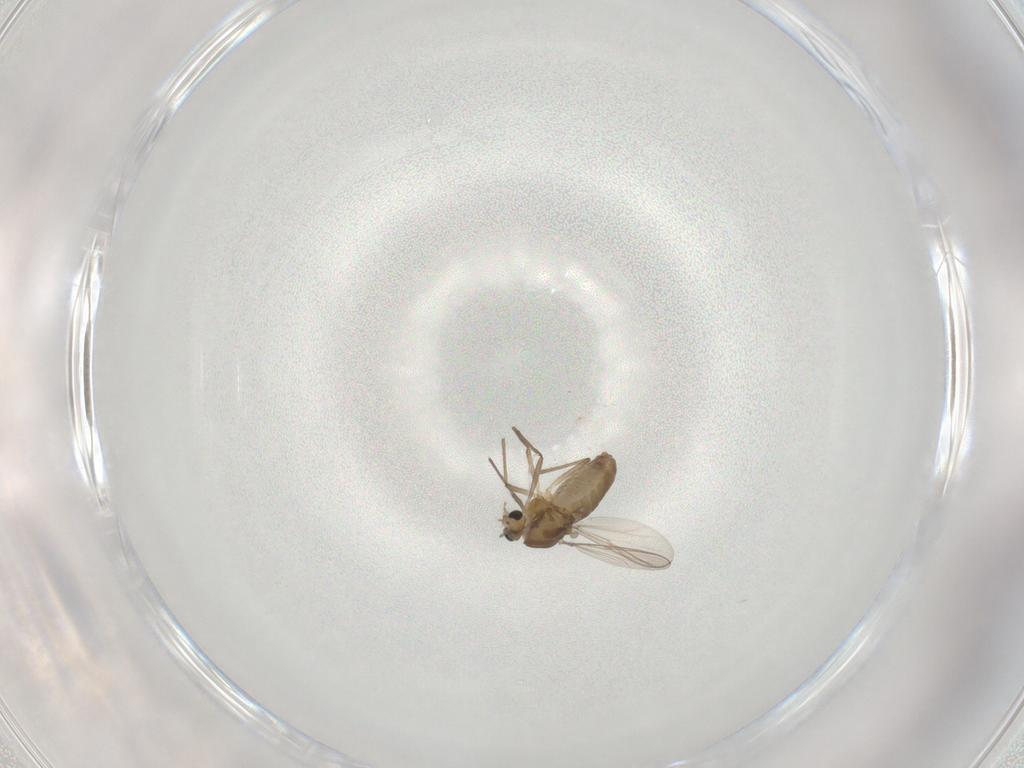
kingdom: Animalia
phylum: Arthropoda
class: Insecta
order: Diptera
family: Chironomidae
